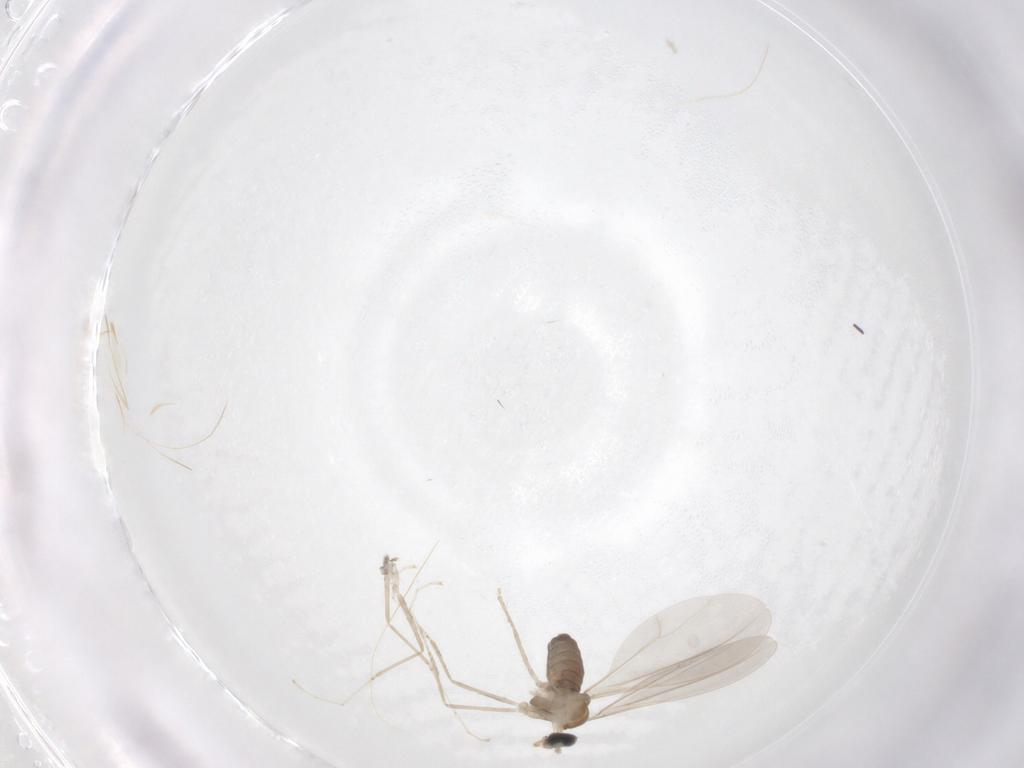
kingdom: Animalia
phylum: Arthropoda
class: Insecta
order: Diptera
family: Cecidomyiidae
